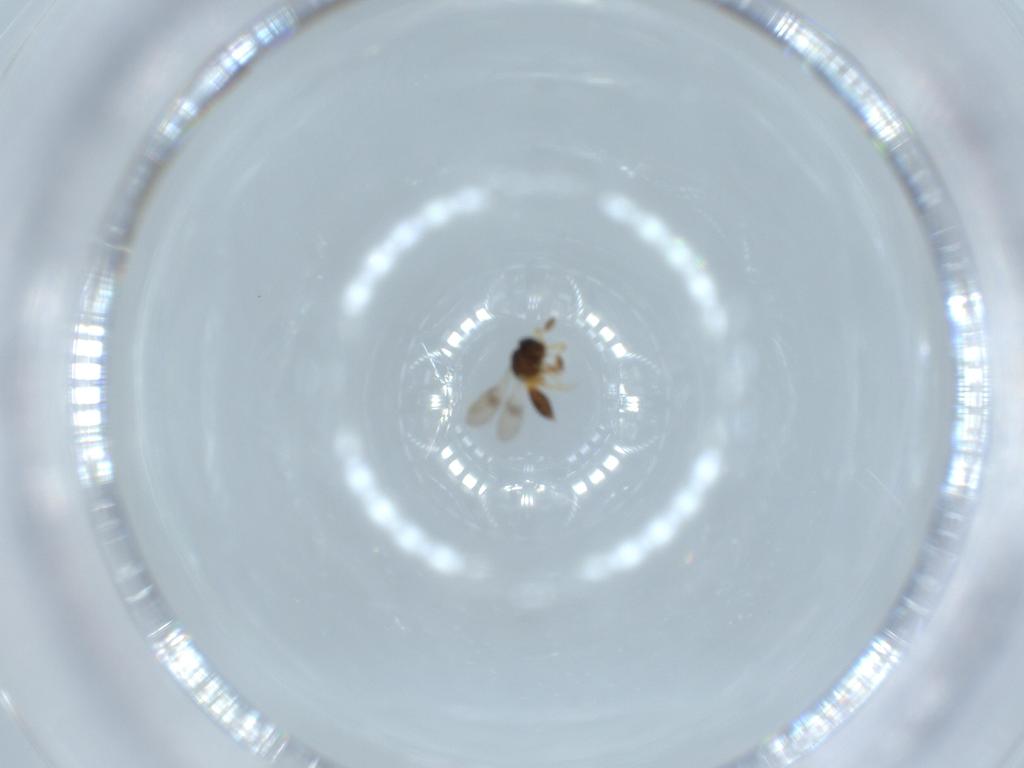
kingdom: Animalia
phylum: Arthropoda
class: Insecta
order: Hymenoptera
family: Scelionidae
